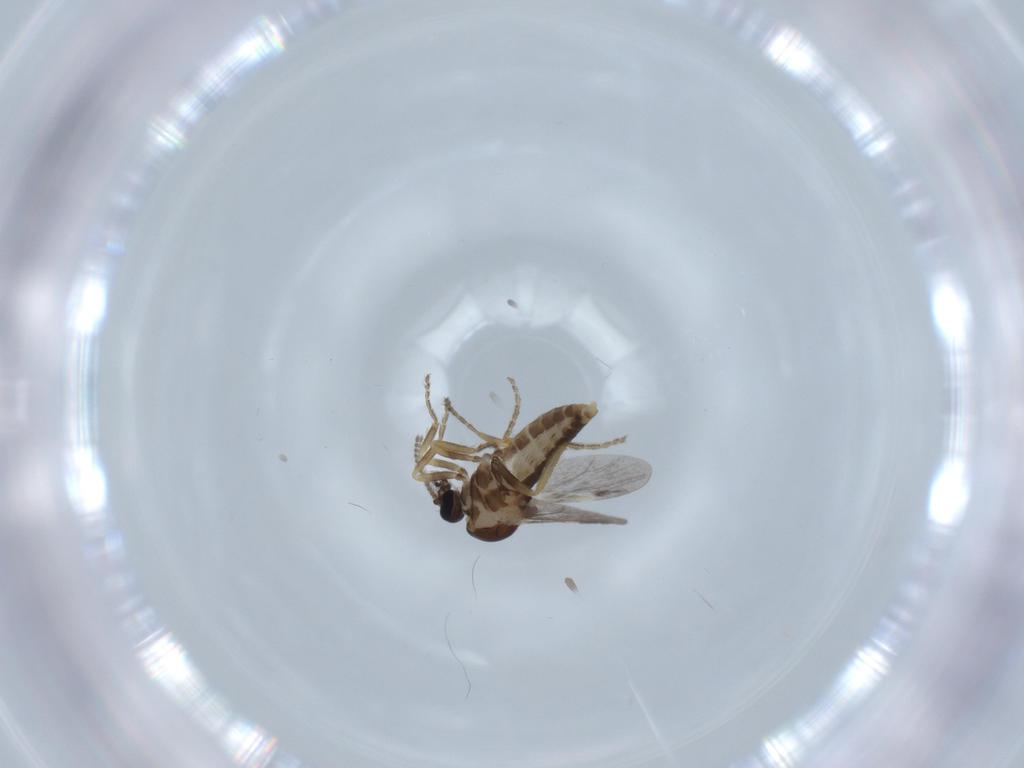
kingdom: Animalia
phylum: Arthropoda
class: Insecta
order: Diptera
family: Ceratopogonidae
